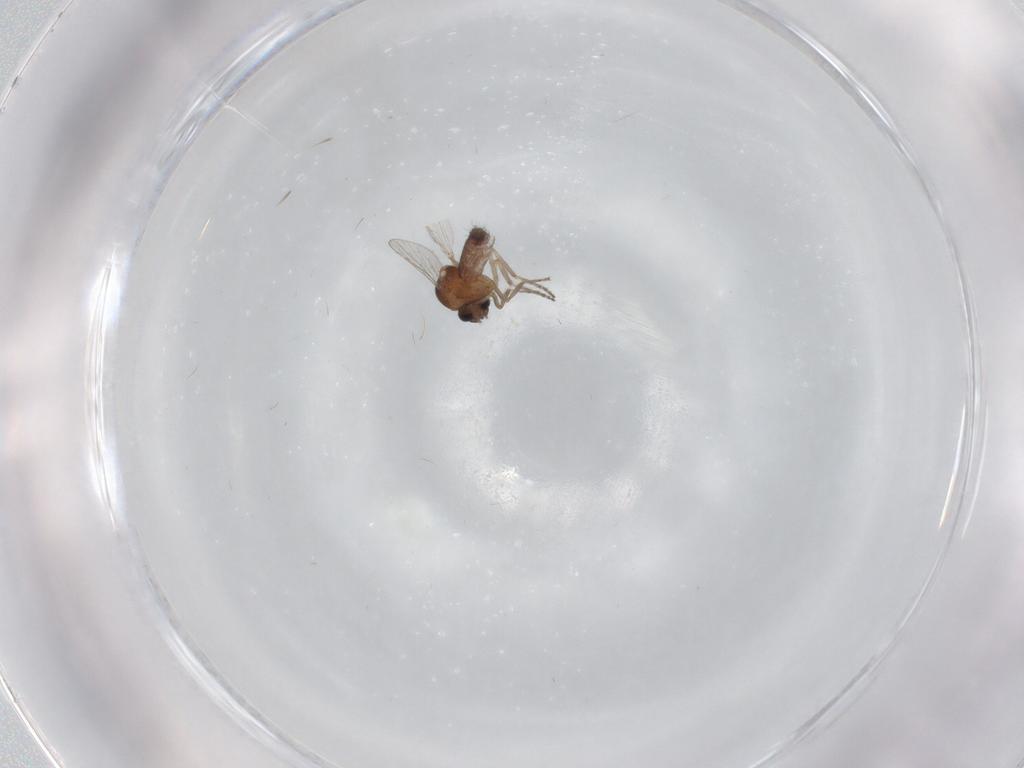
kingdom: Animalia
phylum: Arthropoda
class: Insecta
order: Diptera
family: Ceratopogonidae
